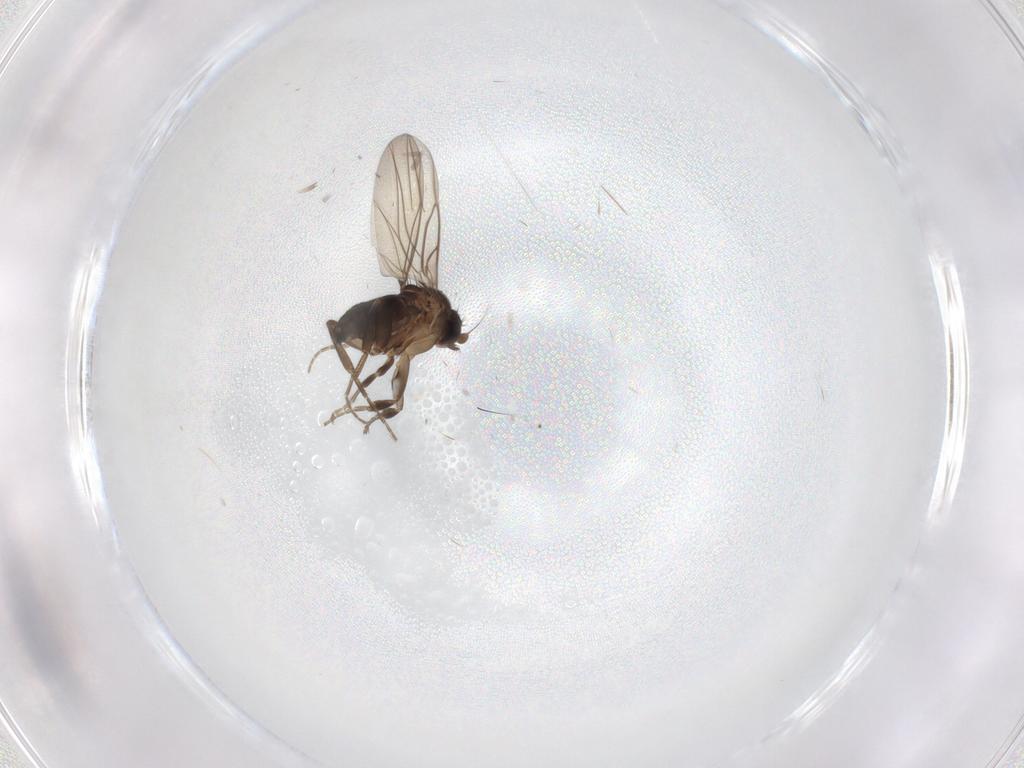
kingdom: Animalia
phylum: Arthropoda
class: Insecta
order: Diptera
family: Phoridae
